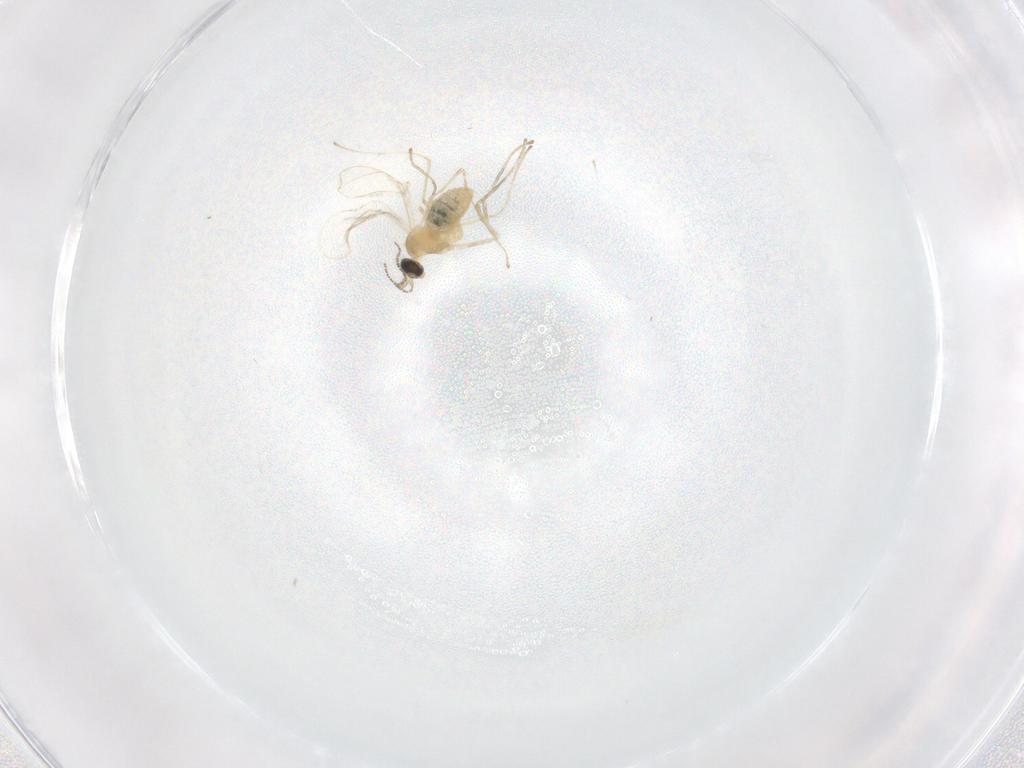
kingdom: Animalia
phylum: Arthropoda
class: Insecta
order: Diptera
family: Cecidomyiidae
